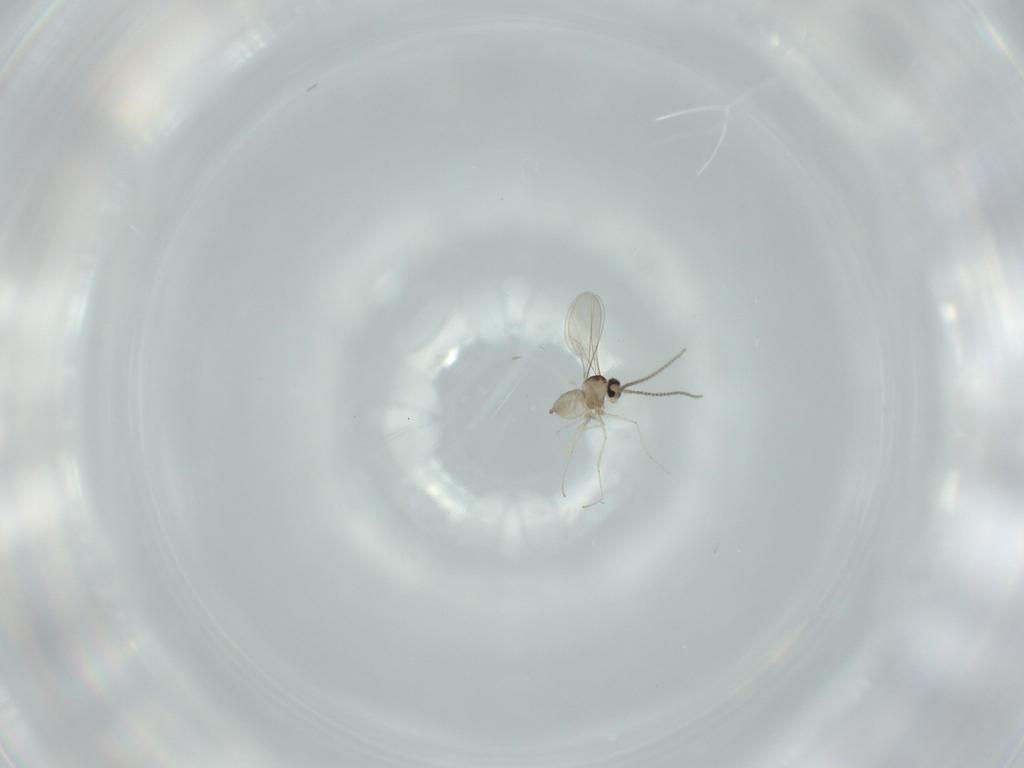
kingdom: Animalia
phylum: Arthropoda
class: Insecta
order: Diptera
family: Cecidomyiidae
